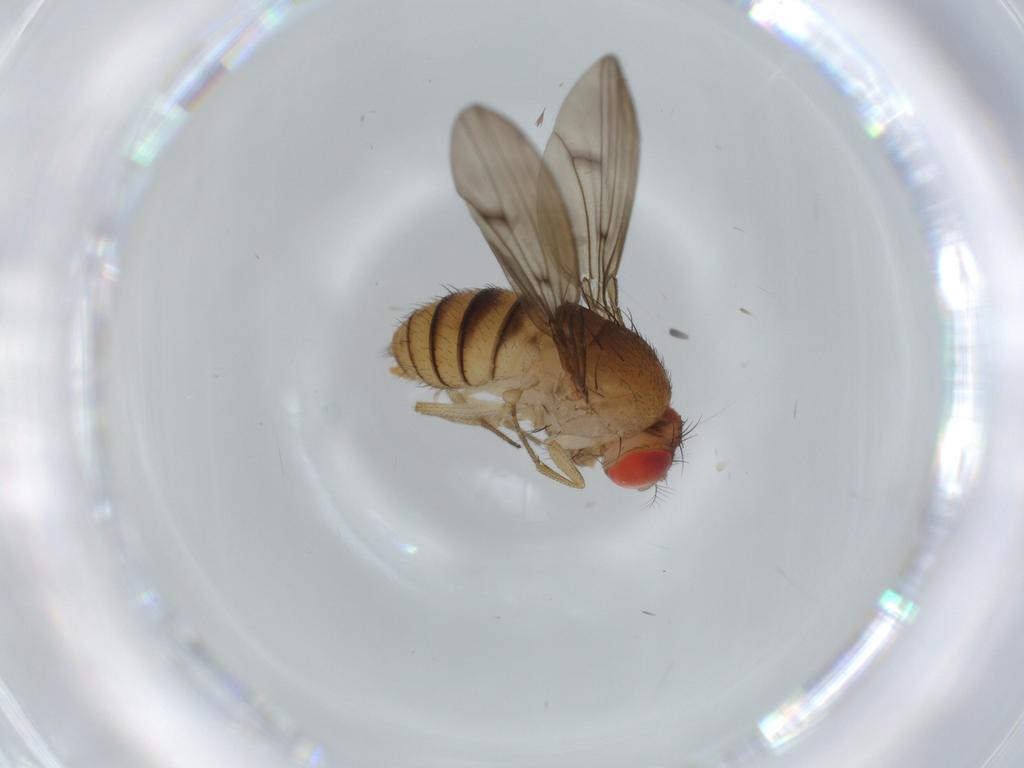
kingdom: Animalia
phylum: Arthropoda
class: Insecta
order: Diptera
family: Drosophilidae
